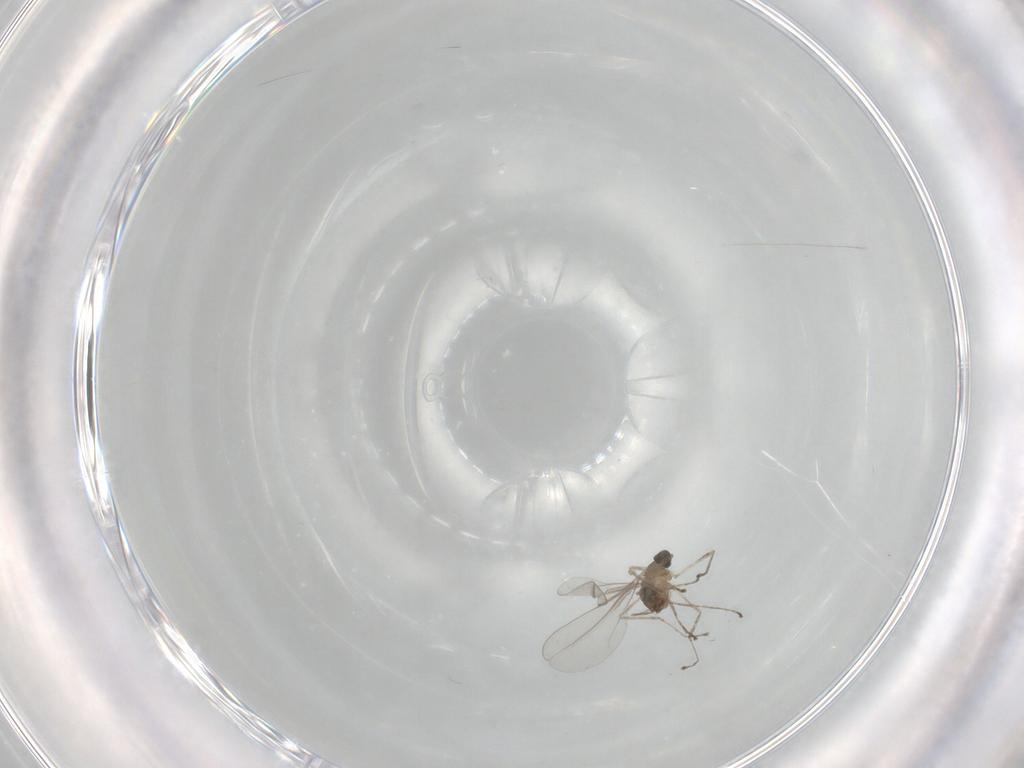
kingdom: Animalia
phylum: Arthropoda
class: Insecta
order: Diptera
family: Cecidomyiidae
